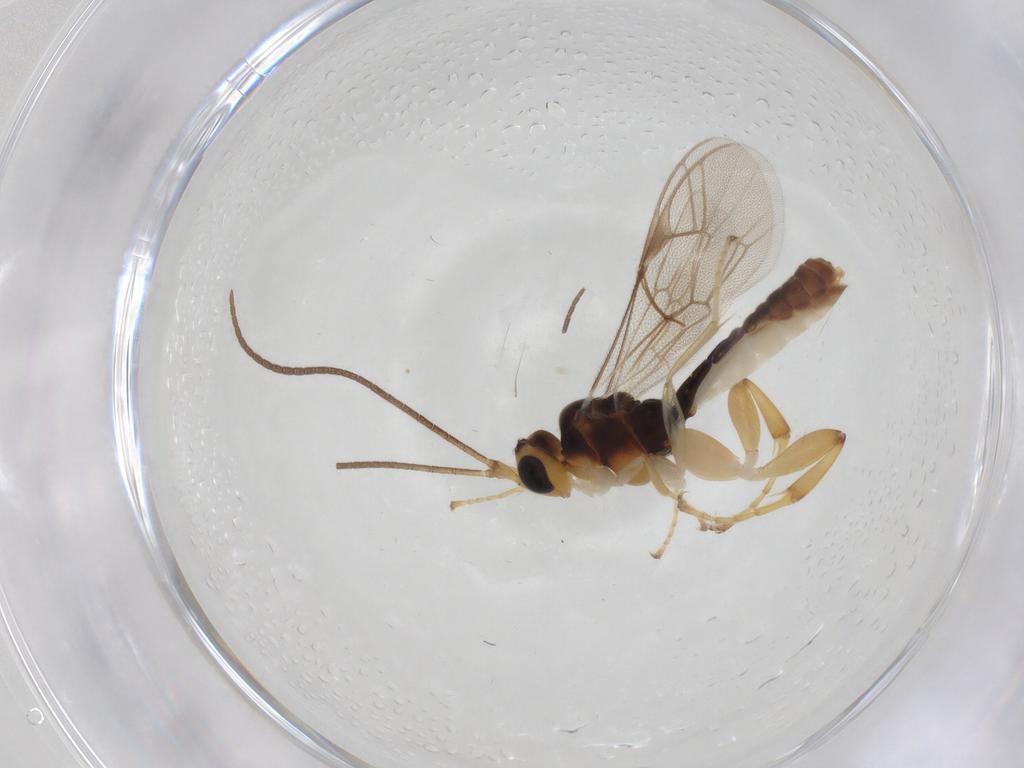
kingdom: Animalia
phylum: Arthropoda
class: Insecta
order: Hymenoptera
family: Ichneumonidae
